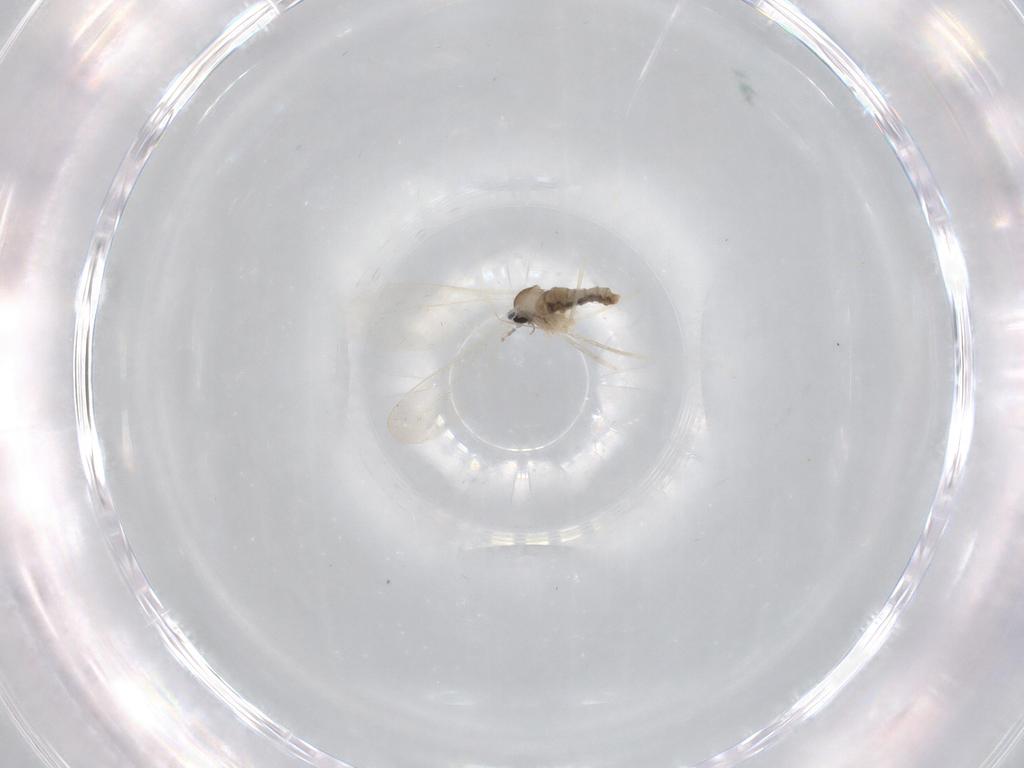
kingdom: Animalia
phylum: Arthropoda
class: Insecta
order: Diptera
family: Cecidomyiidae
